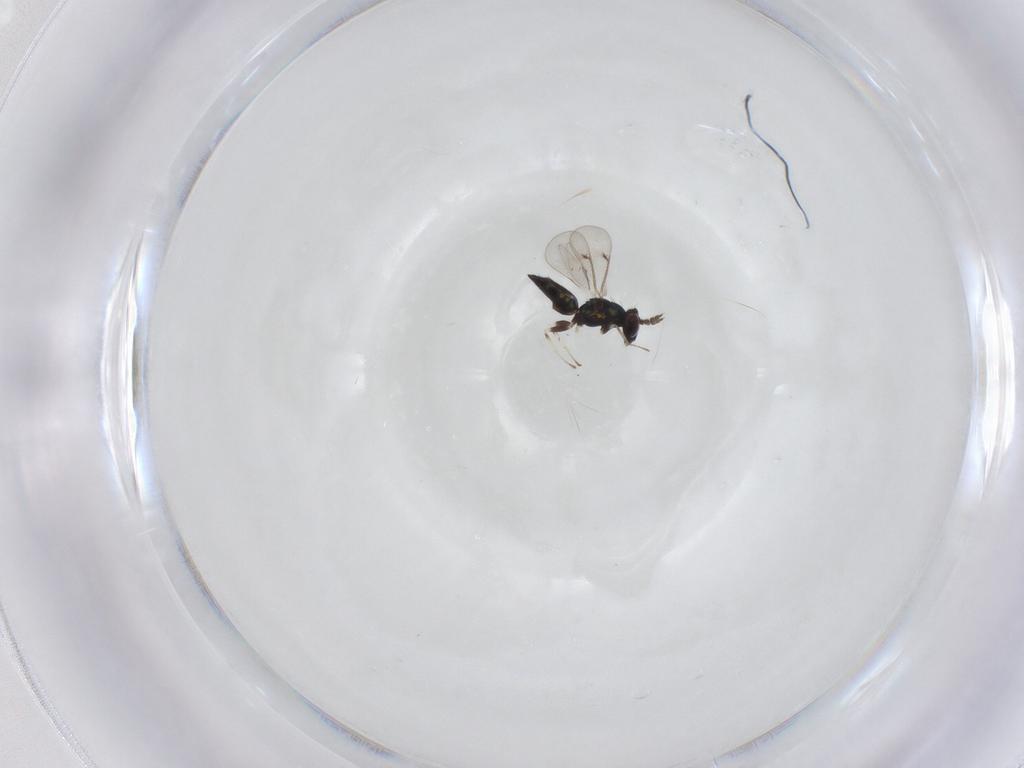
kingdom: Animalia
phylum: Arthropoda
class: Insecta
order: Hymenoptera
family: Eulophidae
